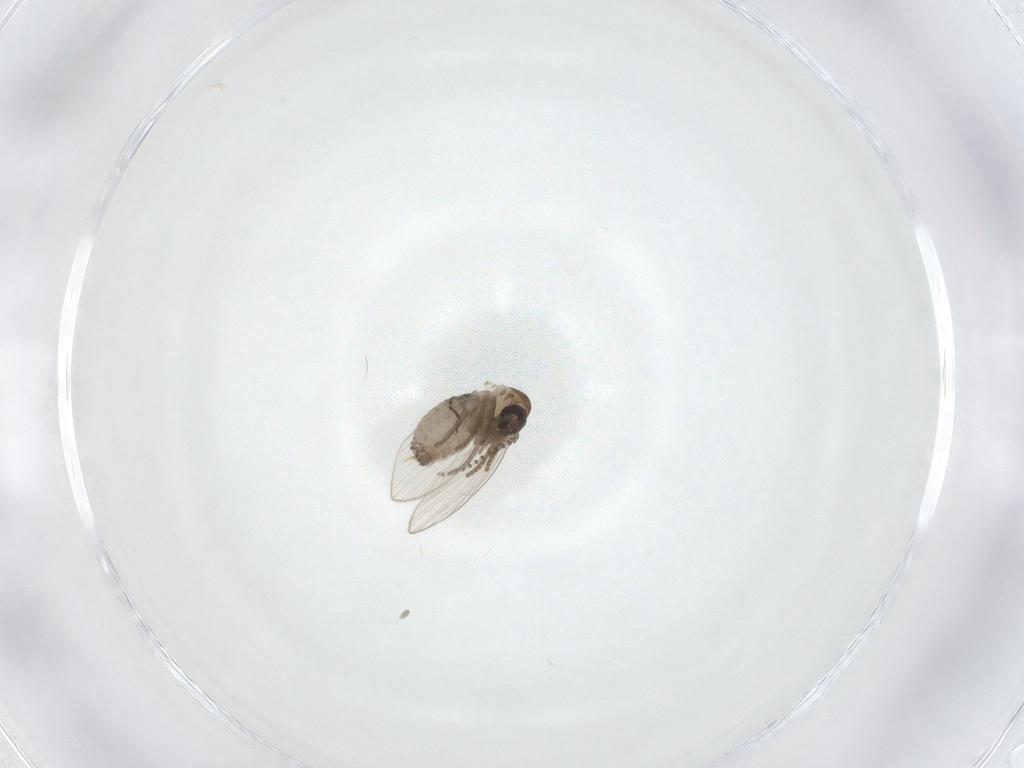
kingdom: Animalia
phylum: Arthropoda
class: Insecta
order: Diptera
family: Psychodidae
